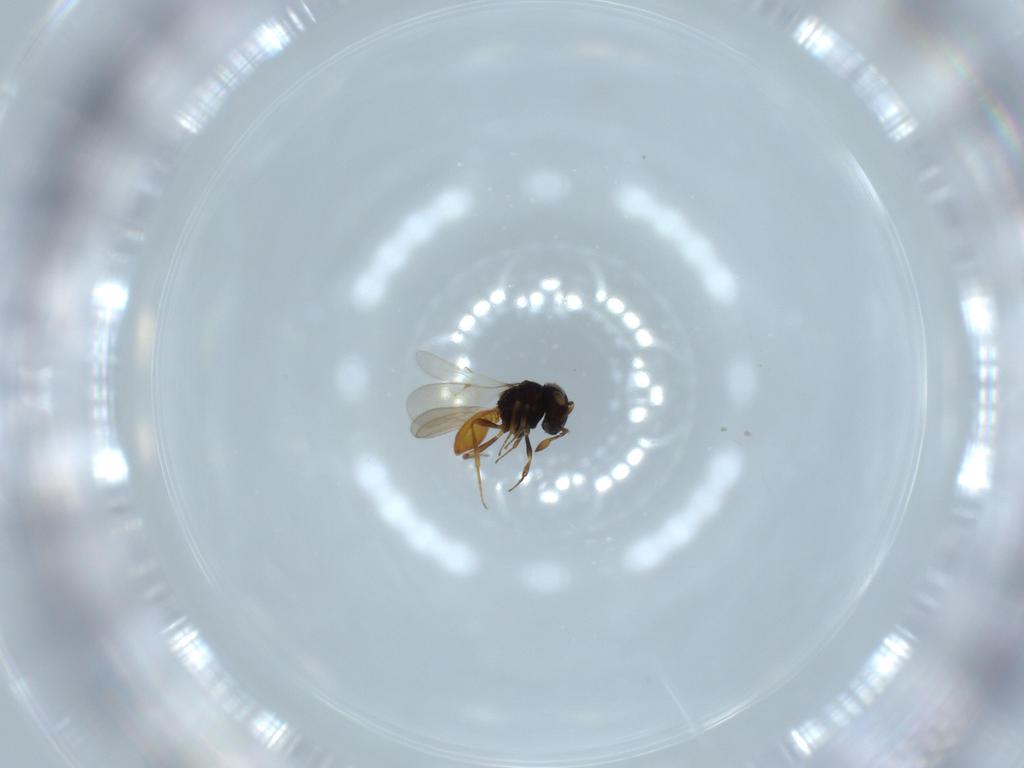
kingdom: Animalia
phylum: Arthropoda
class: Insecta
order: Hymenoptera
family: Scelionidae
